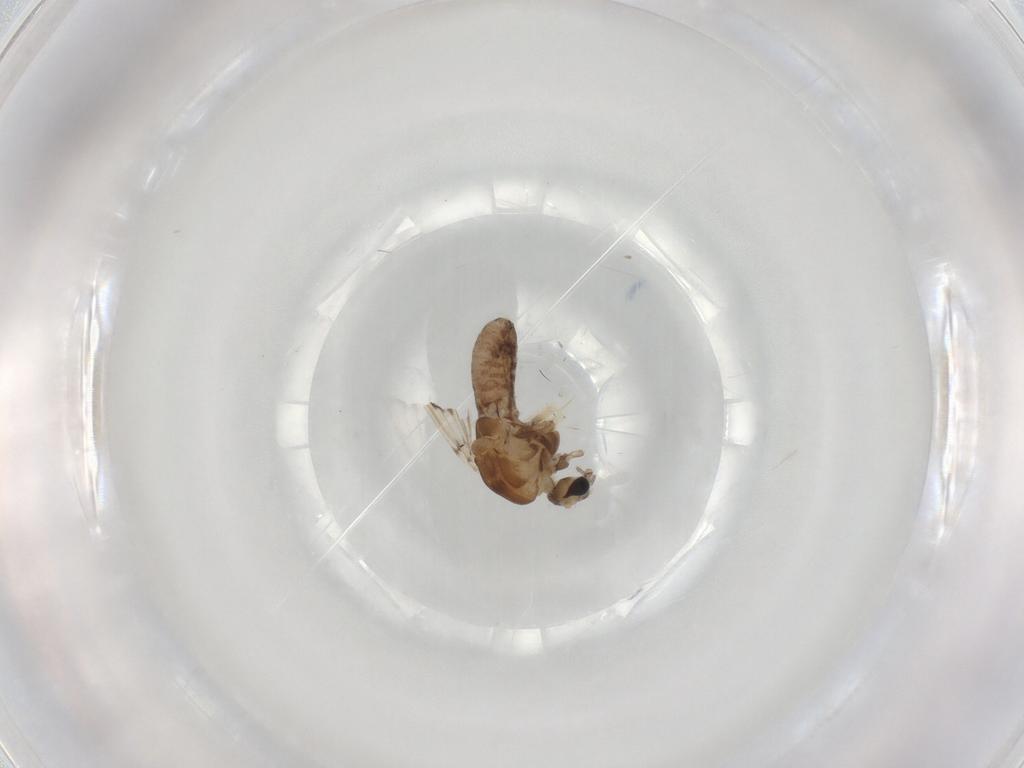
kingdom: Animalia
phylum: Arthropoda
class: Insecta
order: Diptera
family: Chironomidae
